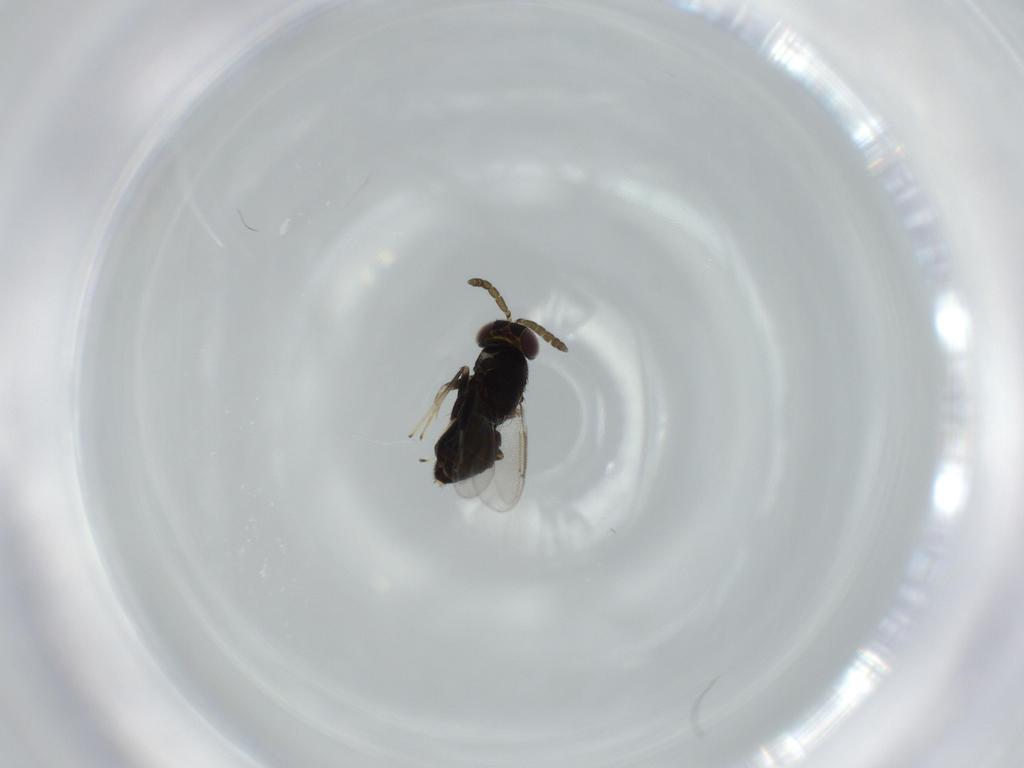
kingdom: Animalia
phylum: Arthropoda
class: Insecta
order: Hymenoptera
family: Aphelinidae
